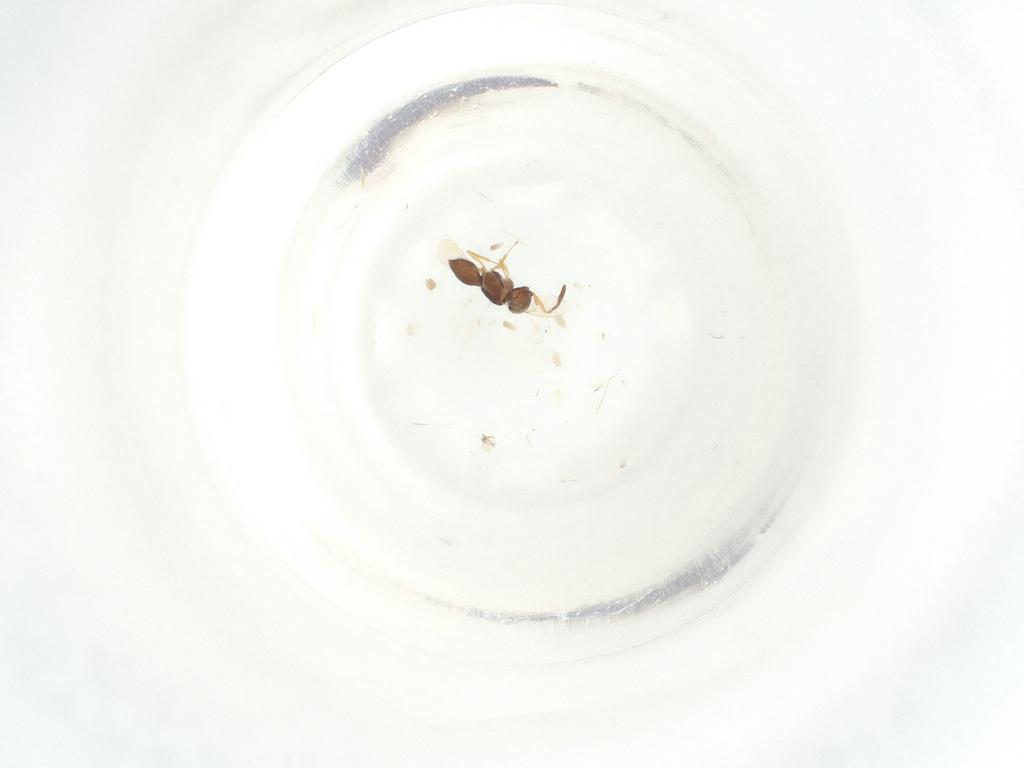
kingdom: Animalia
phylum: Arthropoda
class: Insecta
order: Hymenoptera
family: Scelionidae
